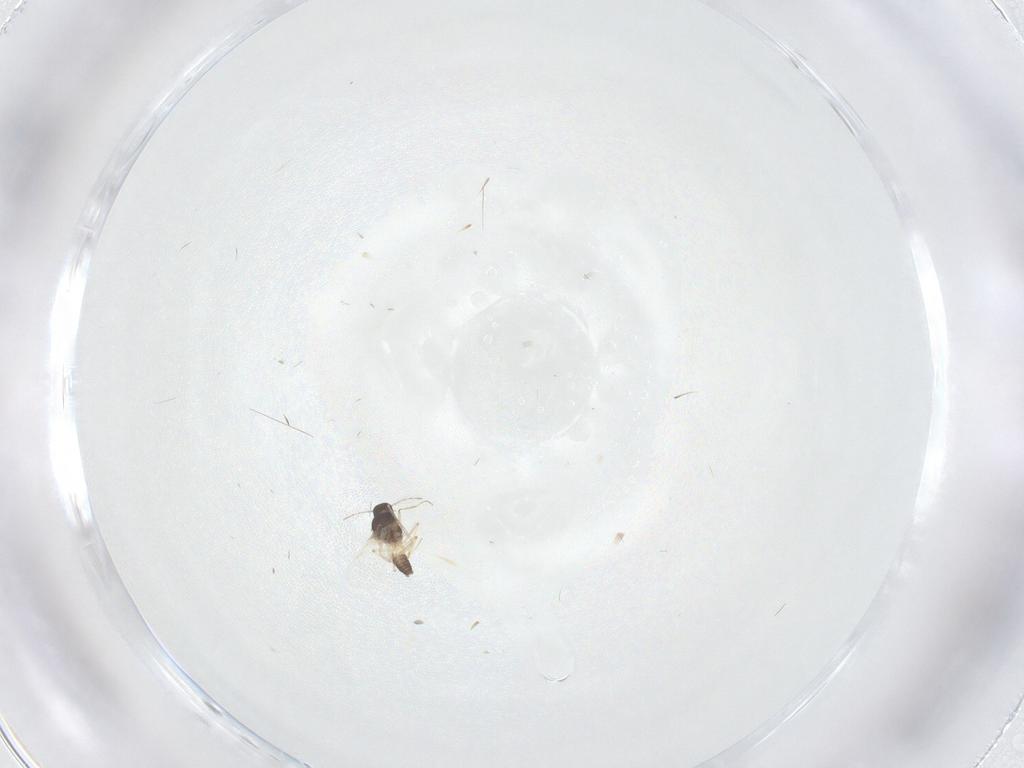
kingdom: Animalia
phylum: Arthropoda
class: Insecta
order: Diptera
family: Ceratopogonidae
